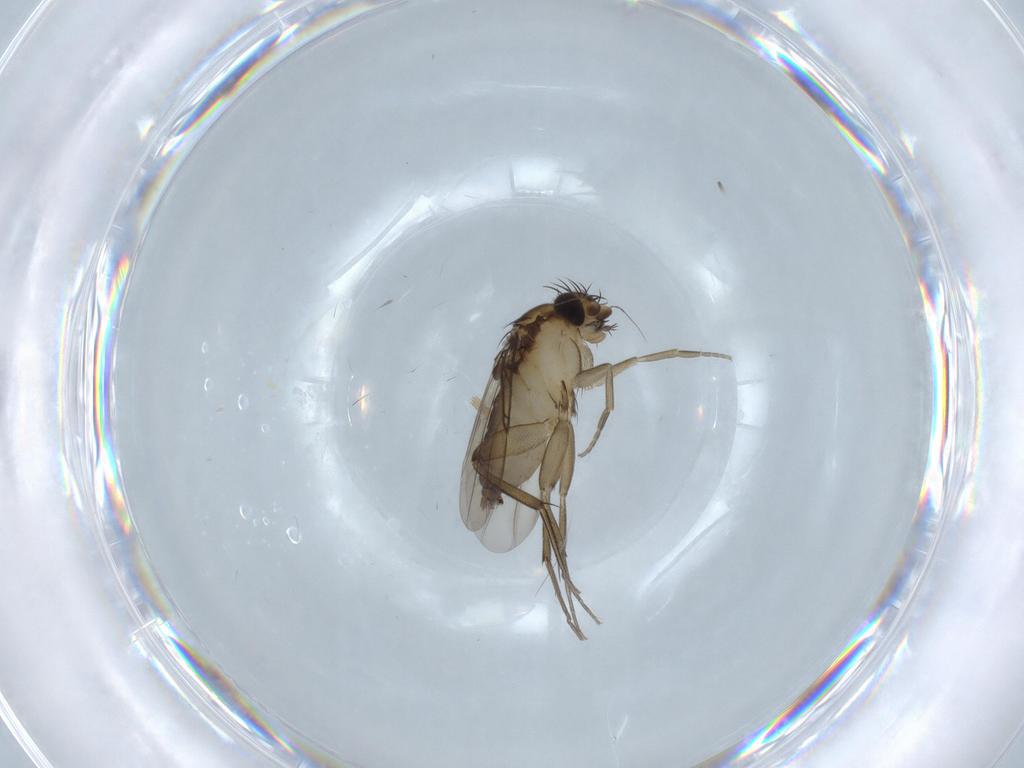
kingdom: Animalia
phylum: Arthropoda
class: Insecta
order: Diptera
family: Phoridae
